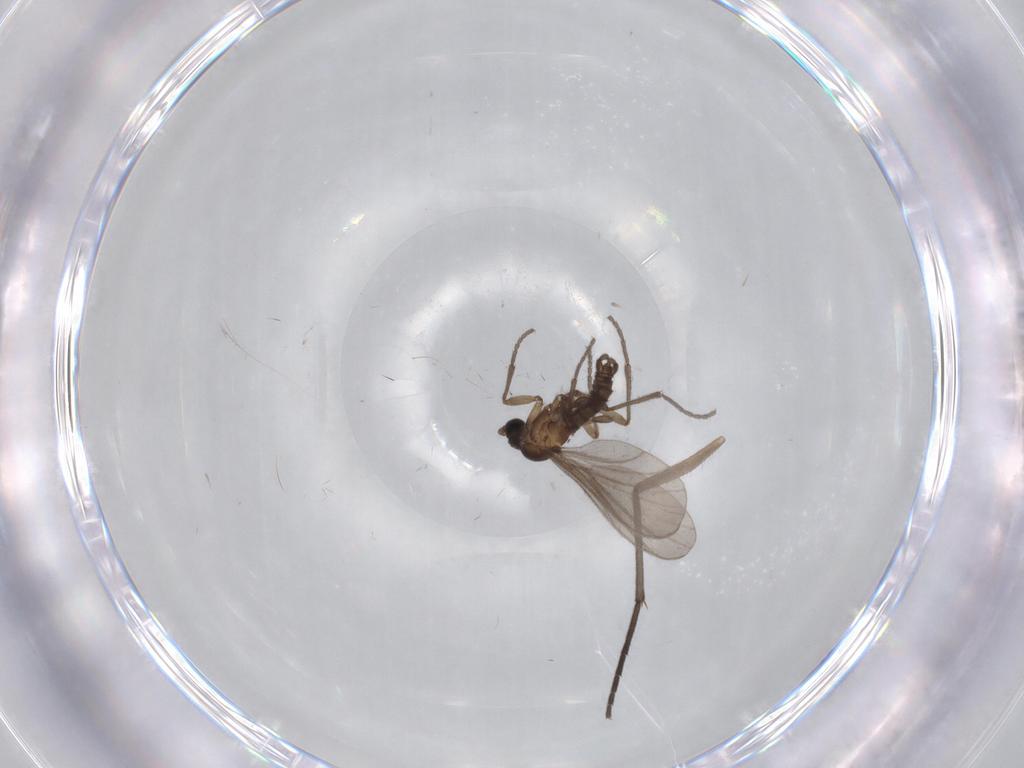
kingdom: Animalia
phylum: Arthropoda
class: Insecta
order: Diptera
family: Sciaridae
